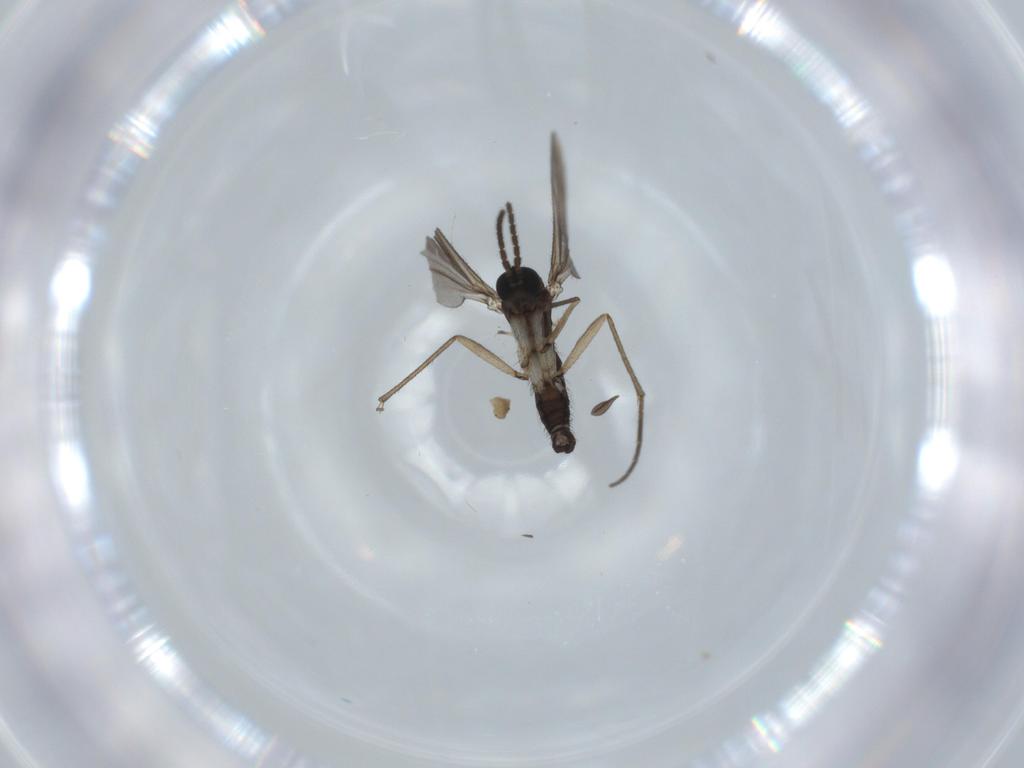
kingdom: Animalia
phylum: Arthropoda
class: Insecta
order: Diptera
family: Sciaridae
